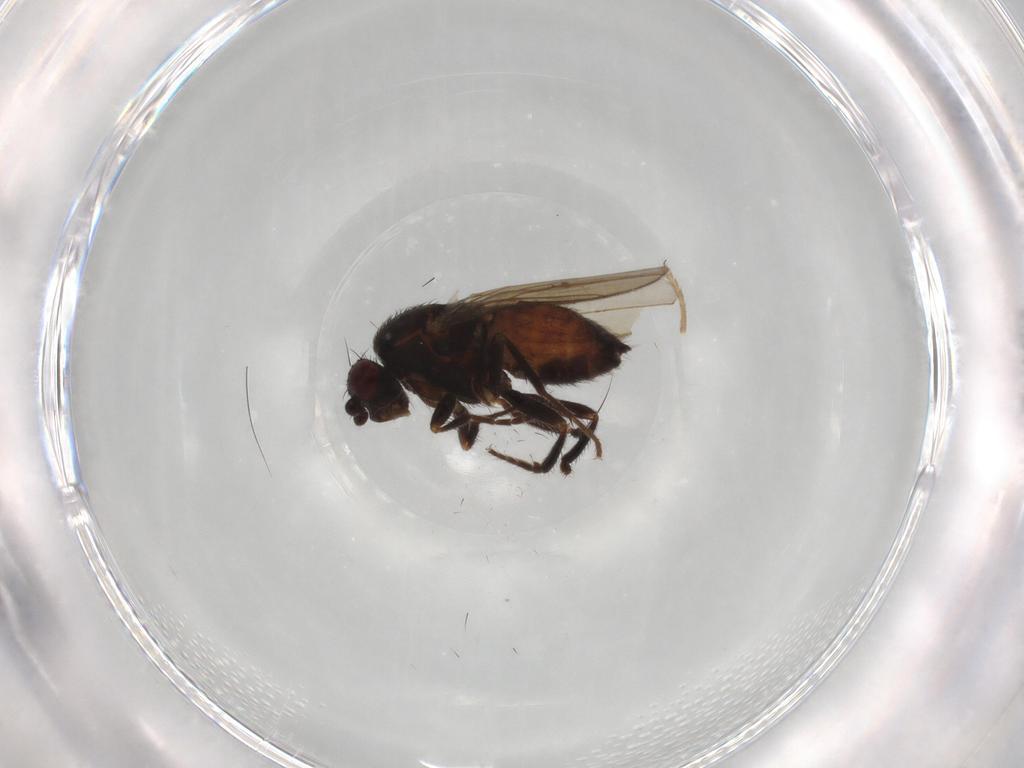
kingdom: Animalia
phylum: Arthropoda
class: Insecta
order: Diptera
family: Sphaeroceridae
